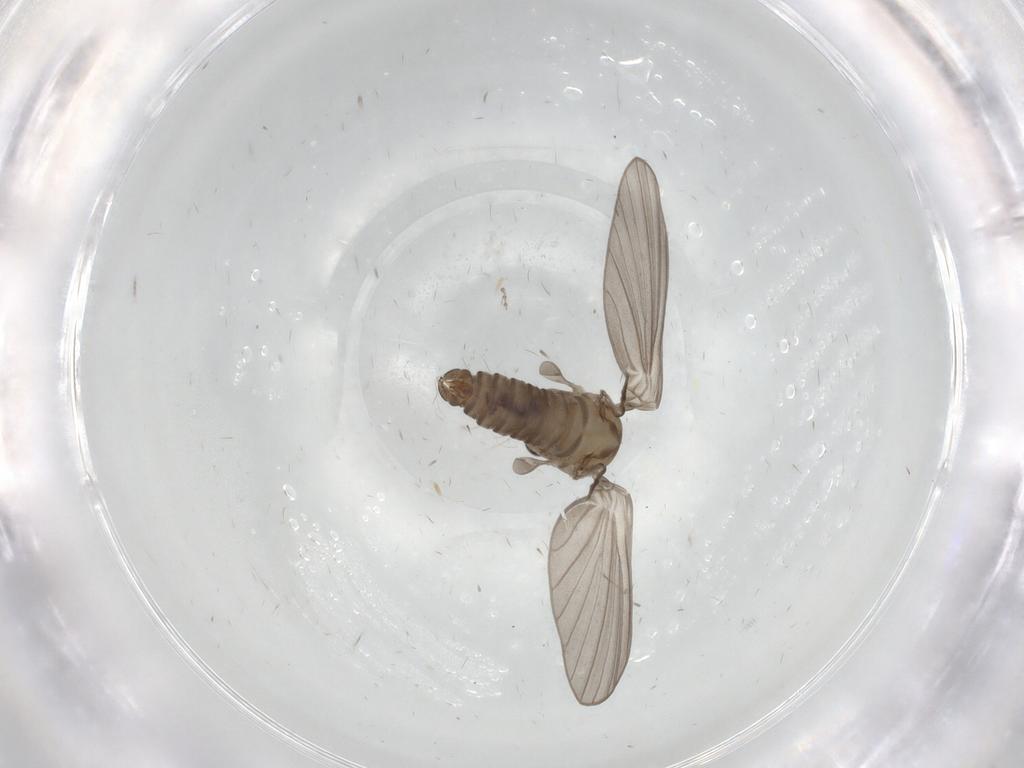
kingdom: Animalia
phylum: Arthropoda
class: Insecta
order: Diptera
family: Psychodidae
